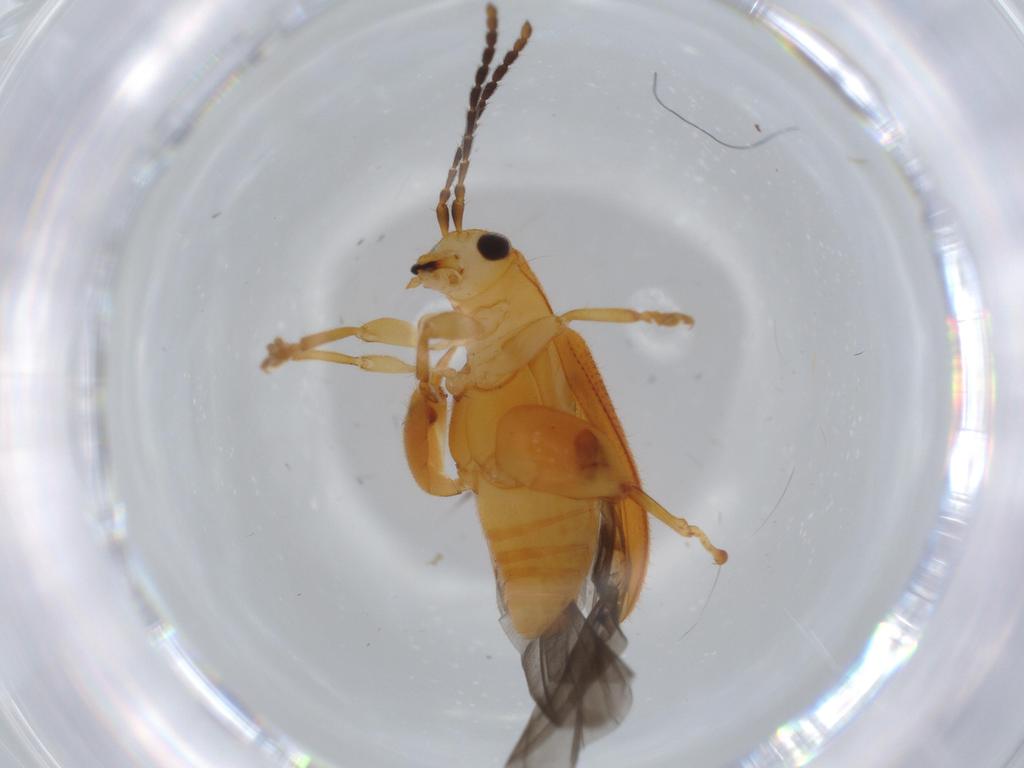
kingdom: Animalia
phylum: Arthropoda
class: Insecta
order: Coleoptera
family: Chrysomelidae
